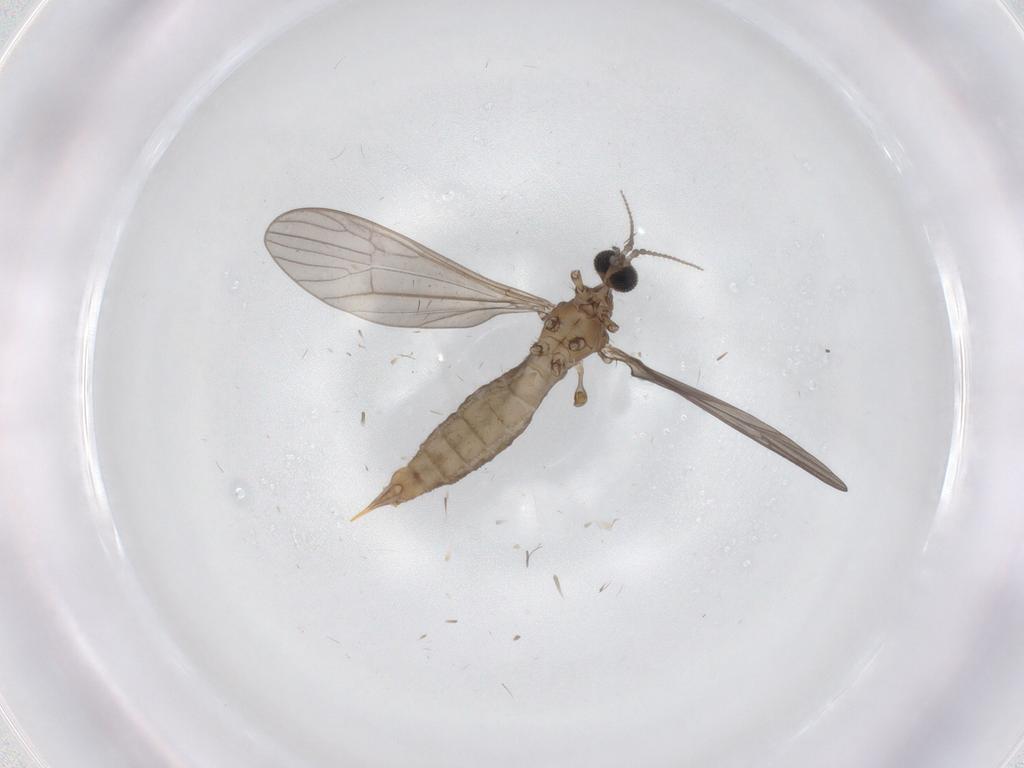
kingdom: Animalia
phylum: Arthropoda
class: Insecta
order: Diptera
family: Limoniidae
